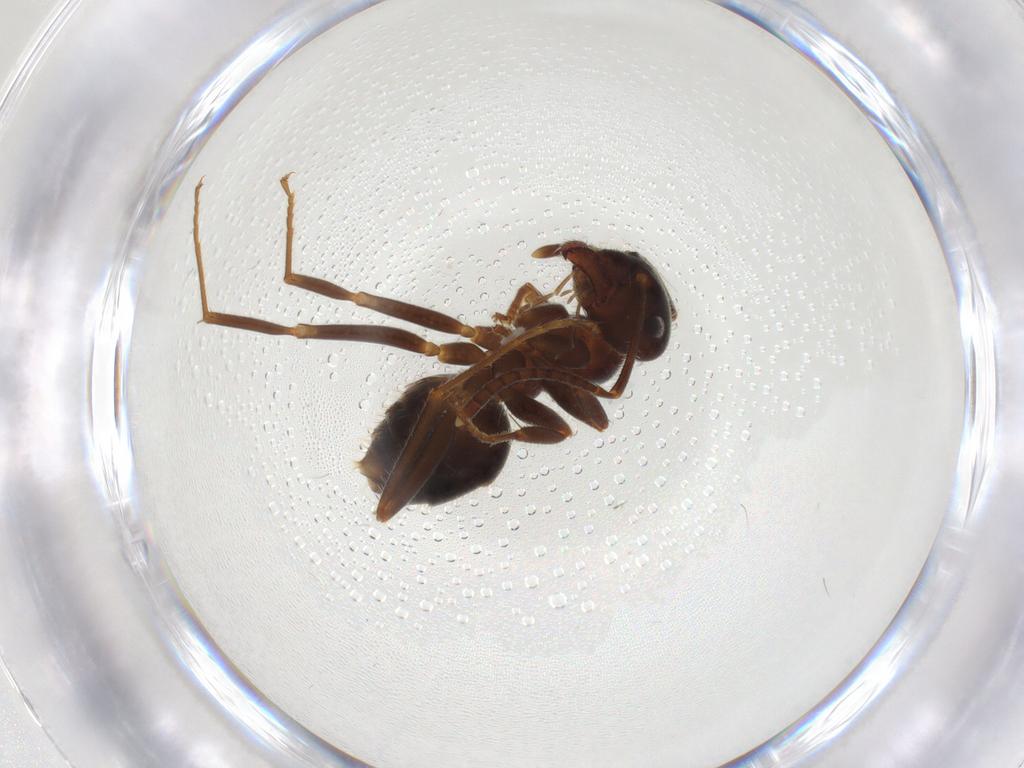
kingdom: Animalia
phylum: Arthropoda
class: Insecta
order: Hymenoptera
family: Formicidae
